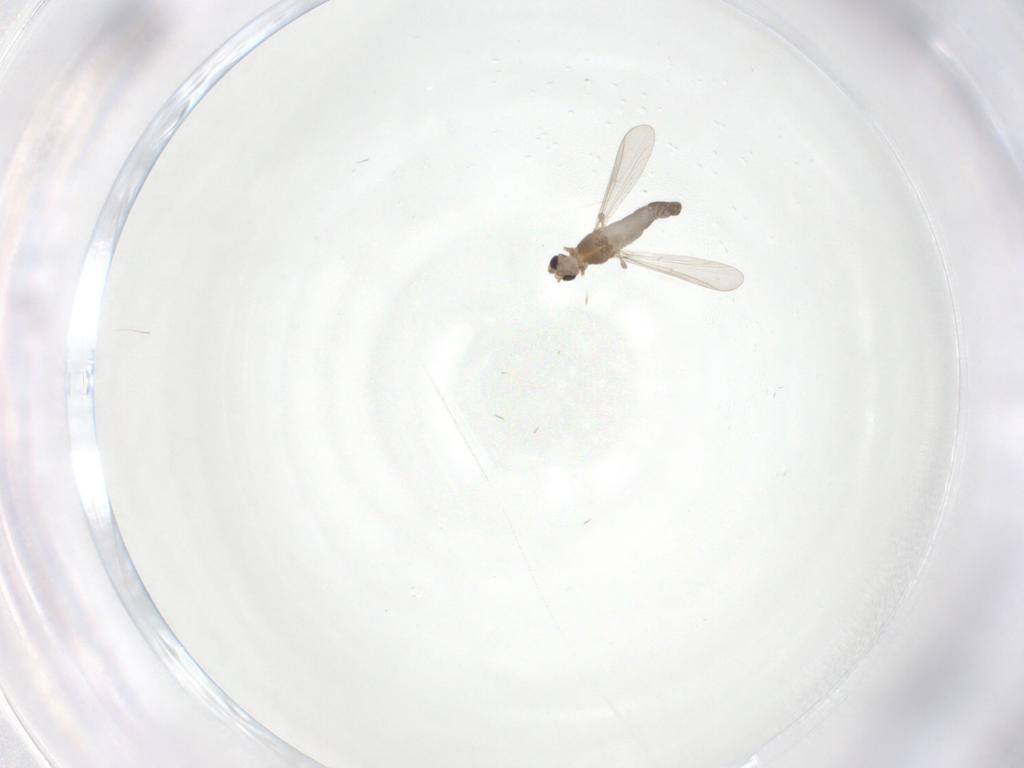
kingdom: Animalia
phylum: Arthropoda
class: Insecta
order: Diptera
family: Chironomidae
